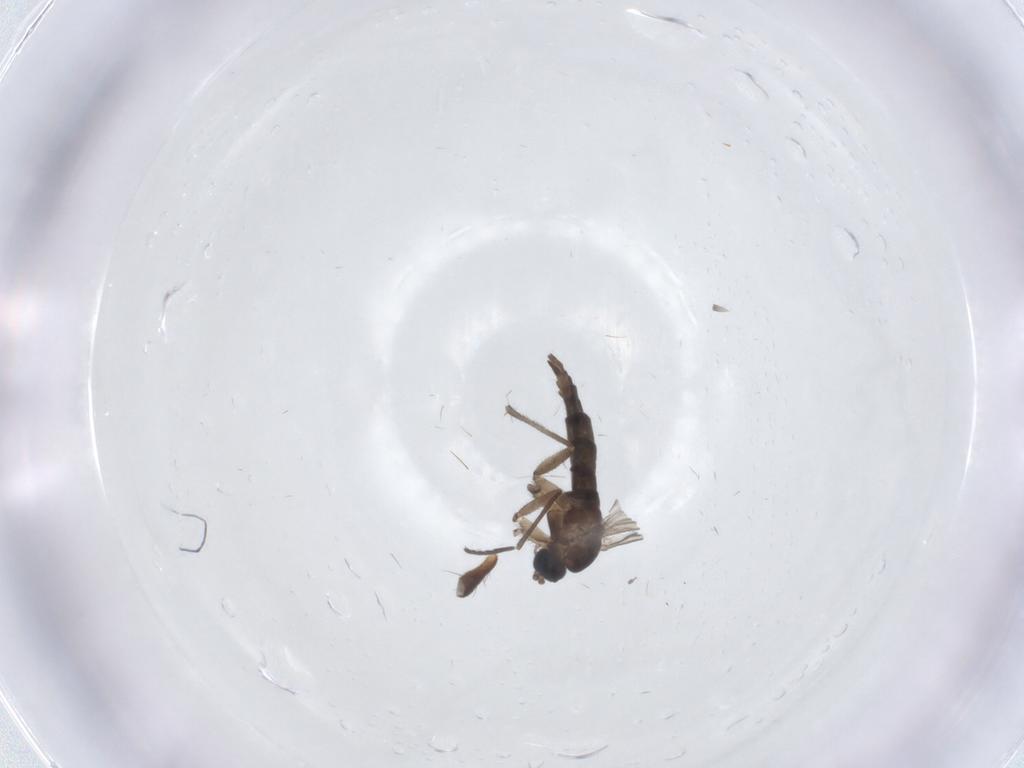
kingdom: Animalia
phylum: Arthropoda
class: Insecta
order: Diptera
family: Sciaridae
